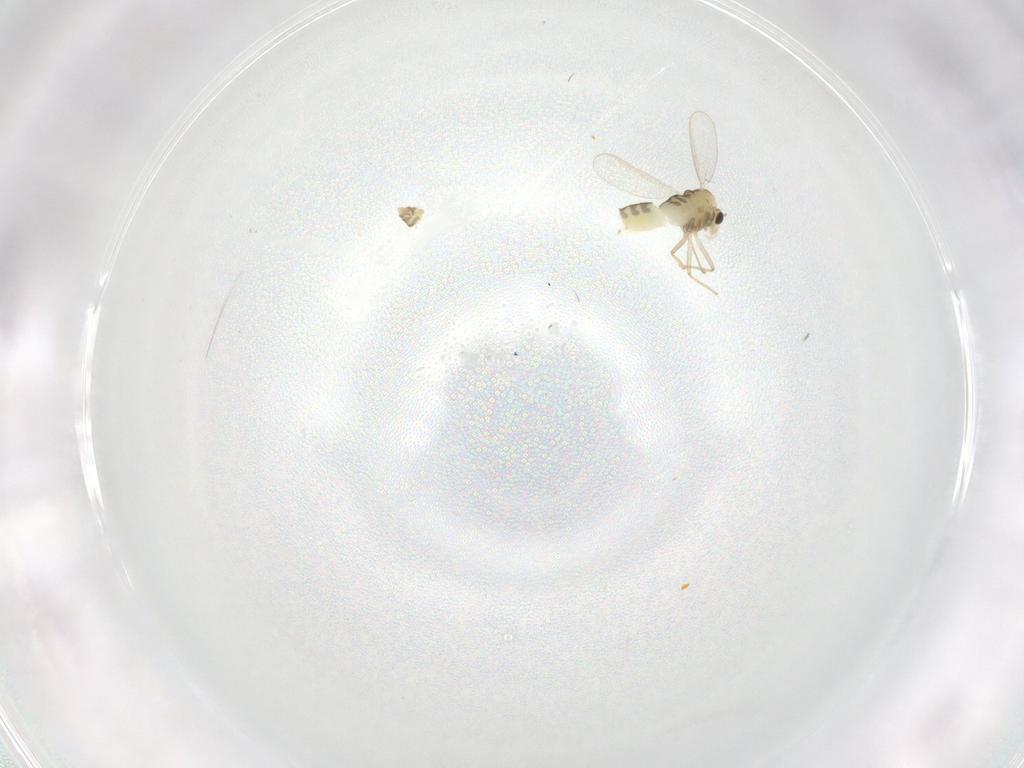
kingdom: Animalia
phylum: Arthropoda
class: Insecta
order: Diptera
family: Chironomidae
